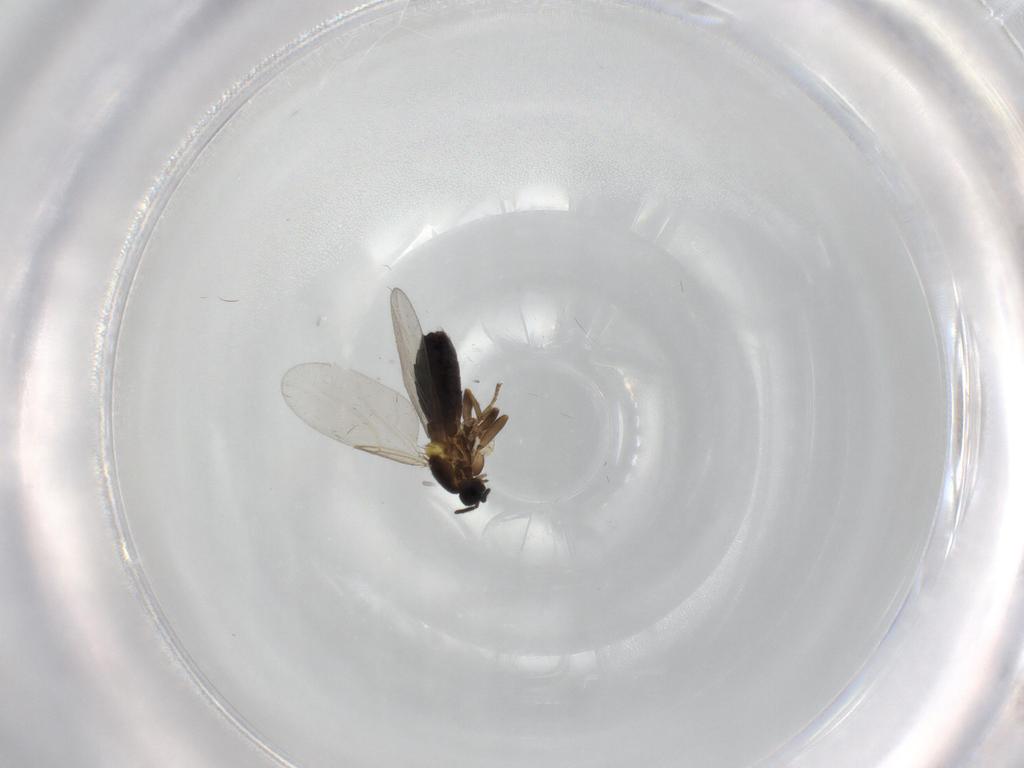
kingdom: Animalia
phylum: Arthropoda
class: Insecta
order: Diptera
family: Scatopsidae
